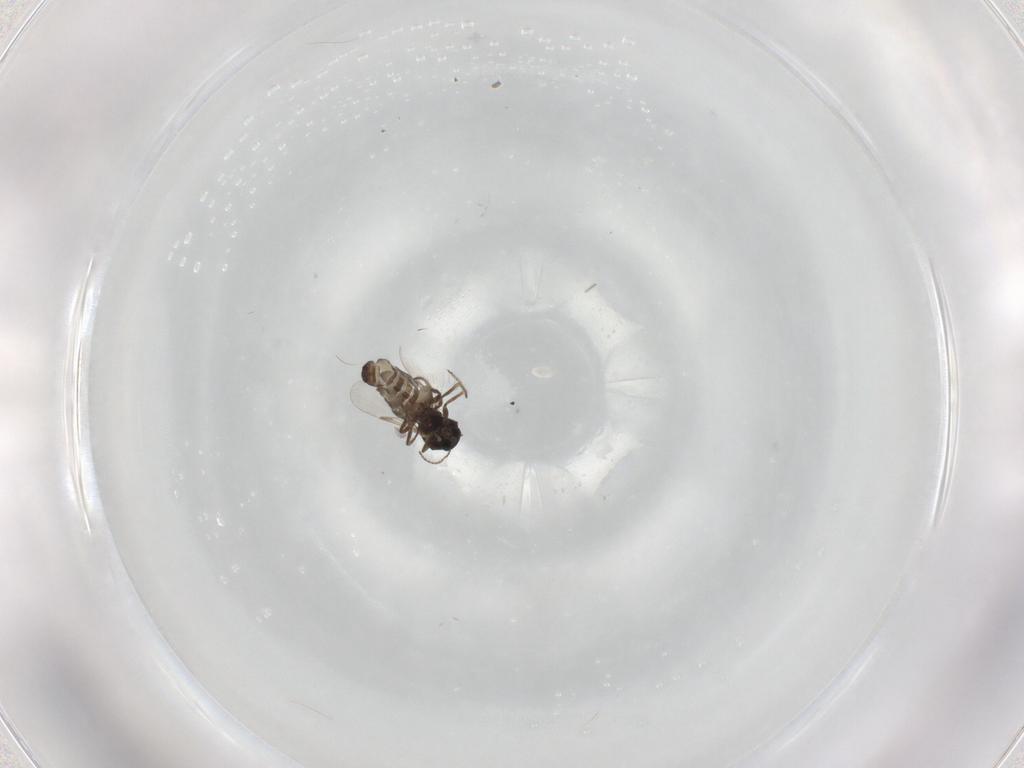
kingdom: Animalia
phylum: Arthropoda
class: Insecta
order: Diptera
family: Ceratopogonidae
